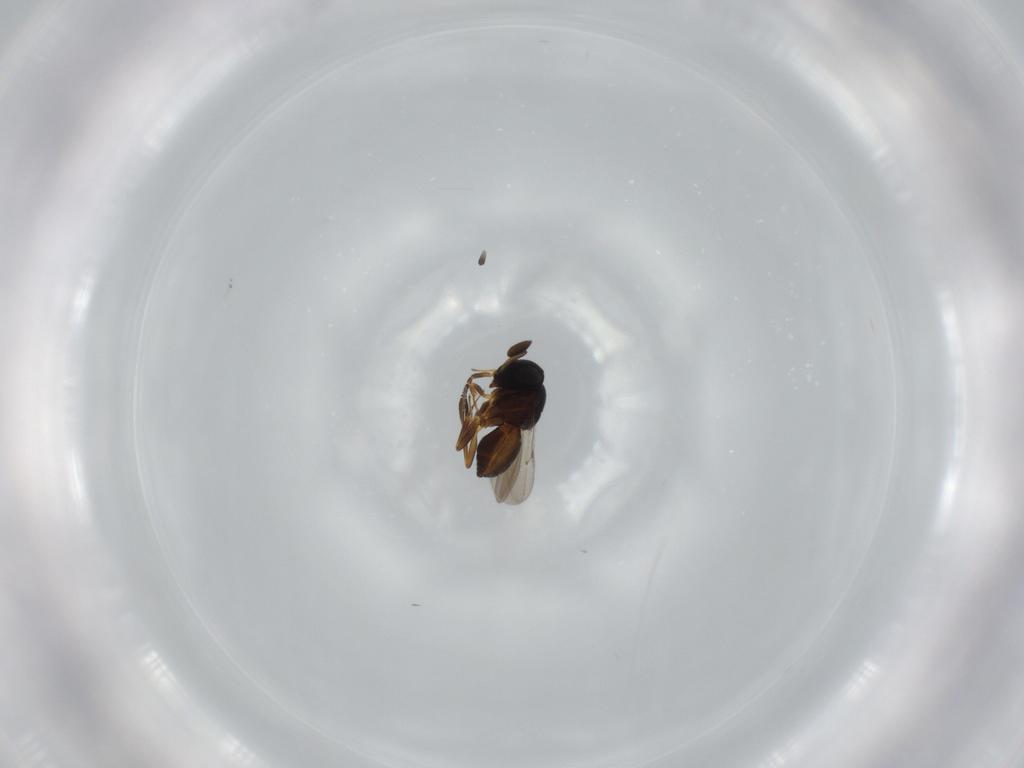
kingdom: Animalia
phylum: Arthropoda
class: Insecta
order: Hymenoptera
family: Scelionidae
